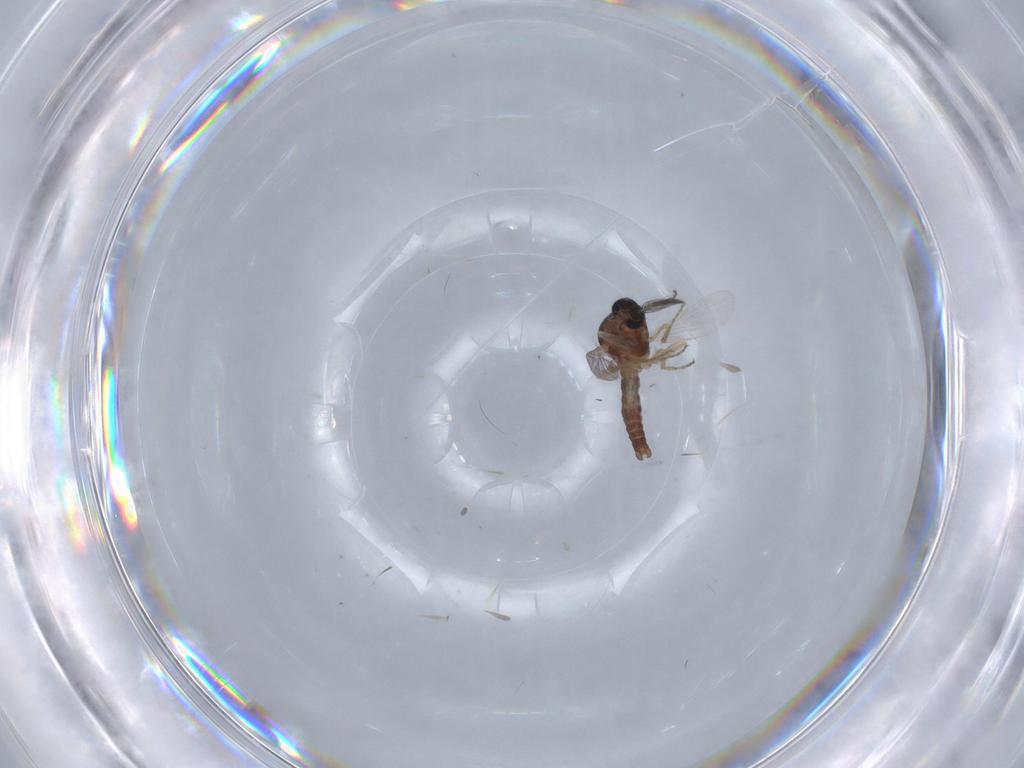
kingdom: Animalia
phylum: Arthropoda
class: Insecta
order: Diptera
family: Ceratopogonidae
